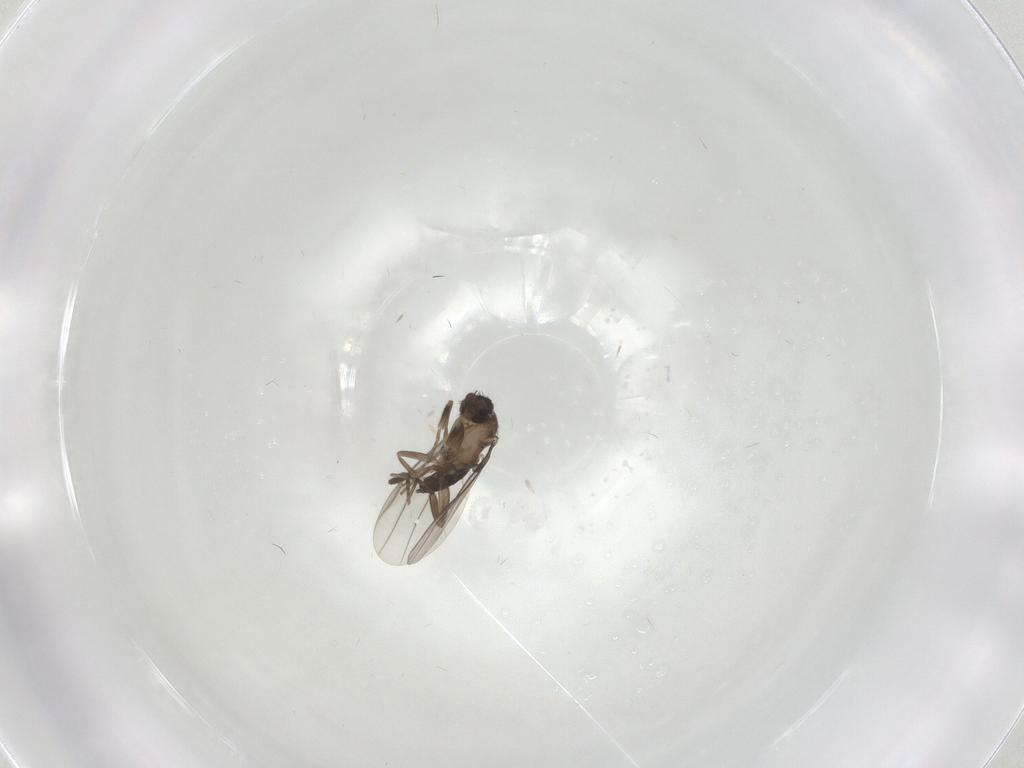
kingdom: Animalia
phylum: Arthropoda
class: Insecta
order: Diptera
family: Phoridae
